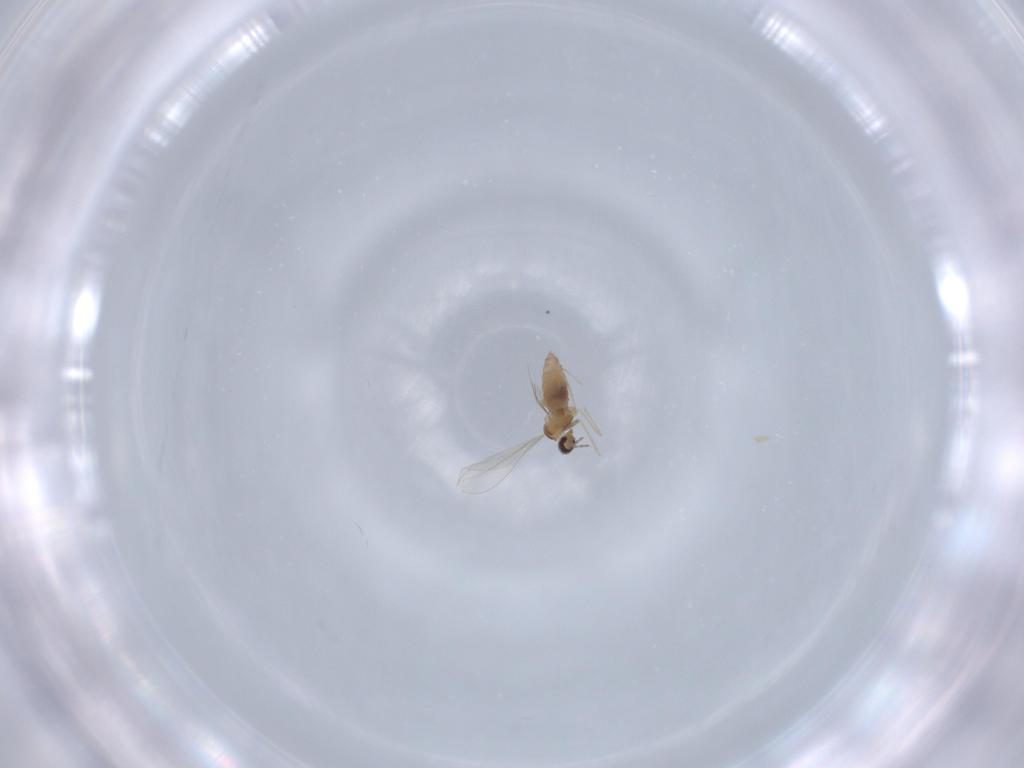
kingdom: Animalia
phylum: Arthropoda
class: Insecta
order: Diptera
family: Cecidomyiidae
